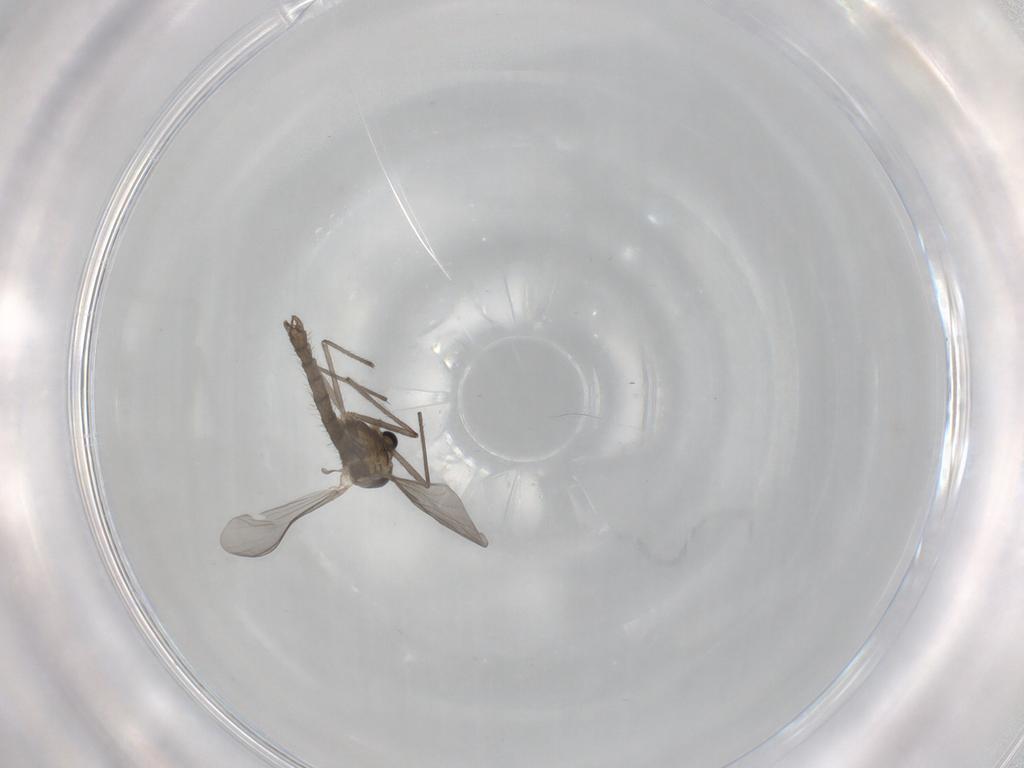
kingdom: Animalia
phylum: Arthropoda
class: Insecta
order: Diptera
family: Chironomidae
